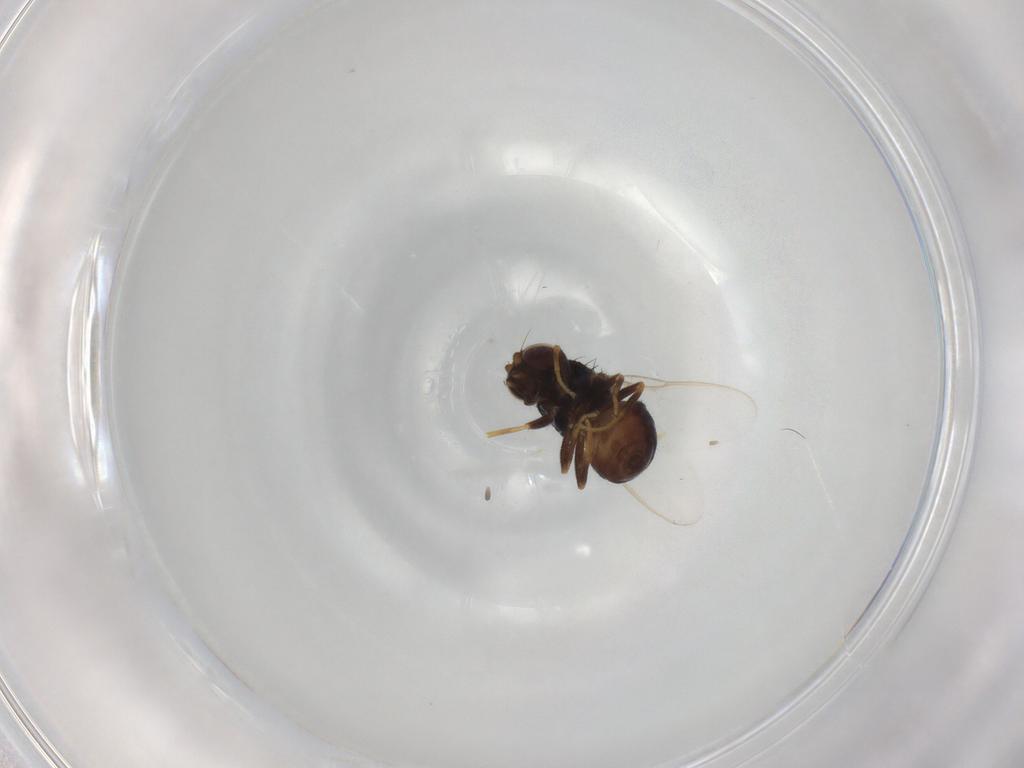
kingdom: Animalia
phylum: Arthropoda
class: Insecta
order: Diptera
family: Chloropidae
